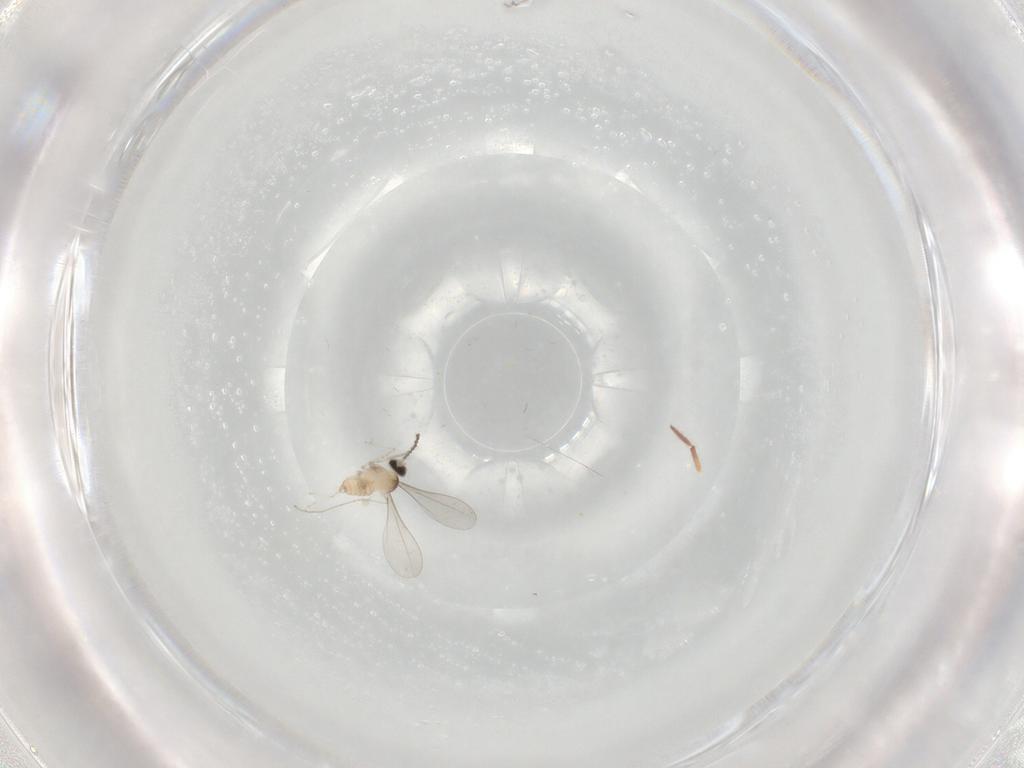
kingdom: Animalia
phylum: Arthropoda
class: Insecta
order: Diptera
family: Cecidomyiidae
